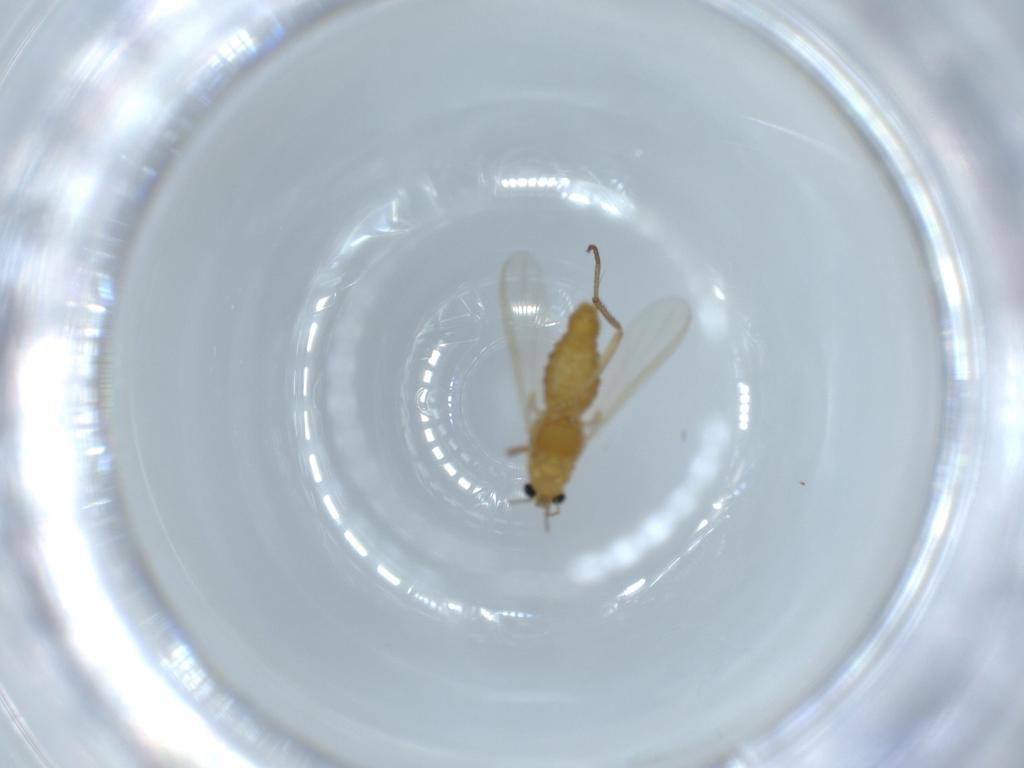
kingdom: Animalia
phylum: Arthropoda
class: Insecta
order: Diptera
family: Chironomidae
